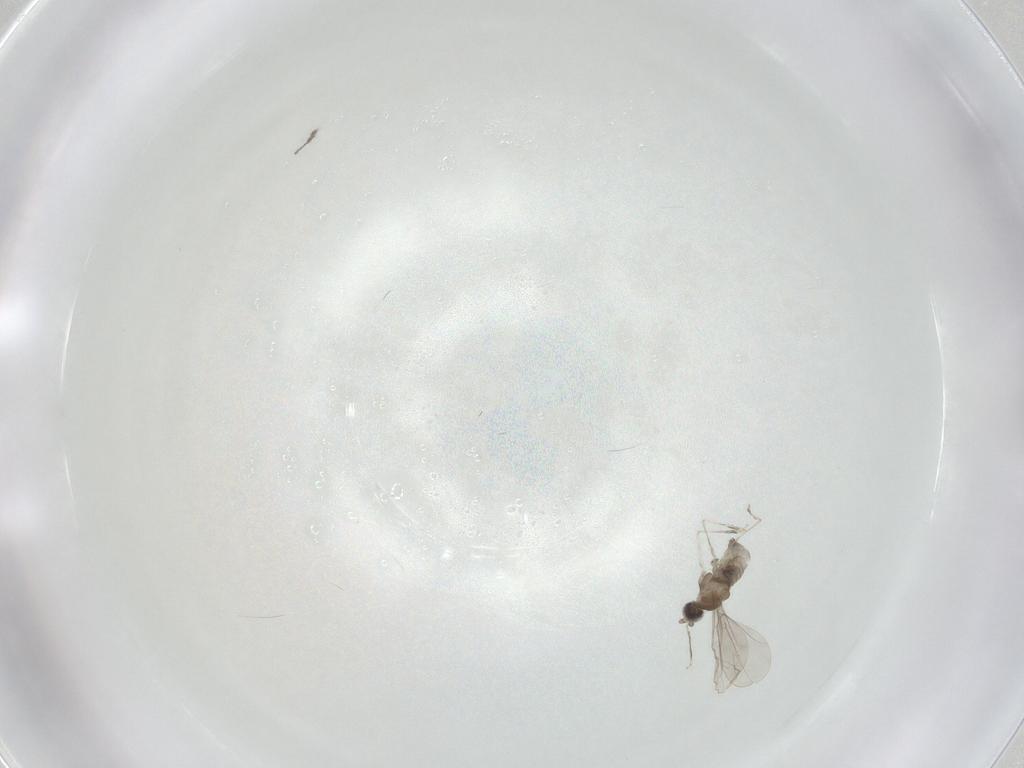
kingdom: Animalia
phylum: Arthropoda
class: Insecta
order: Diptera
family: Cecidomyiidae
